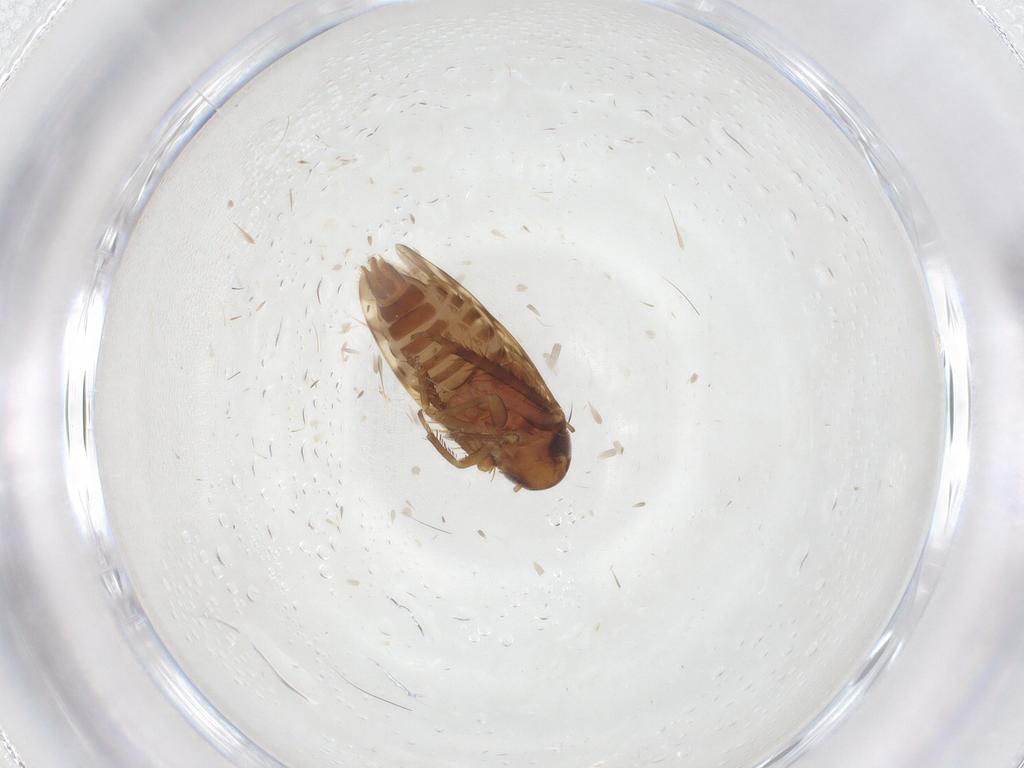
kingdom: Animalia
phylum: Arthropoda
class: Insecta
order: Hemiptera
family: Cicadellidae
